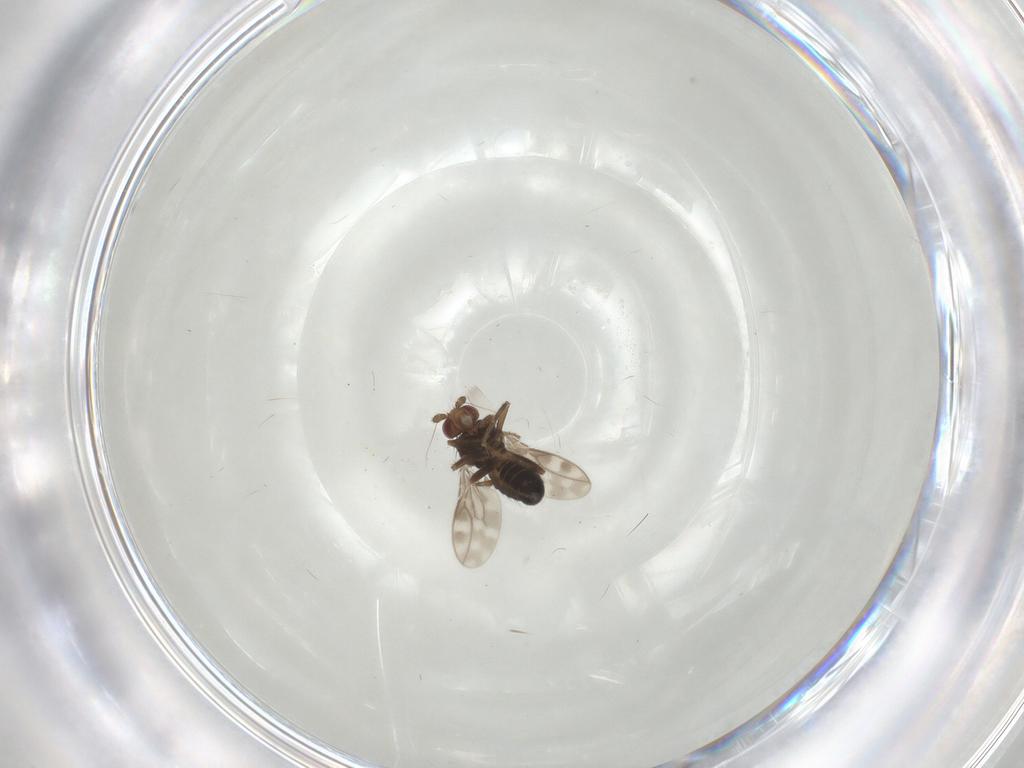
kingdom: Animalia
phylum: Arthropoda
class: Insecta
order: Diptera
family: Sphaeroceridae
